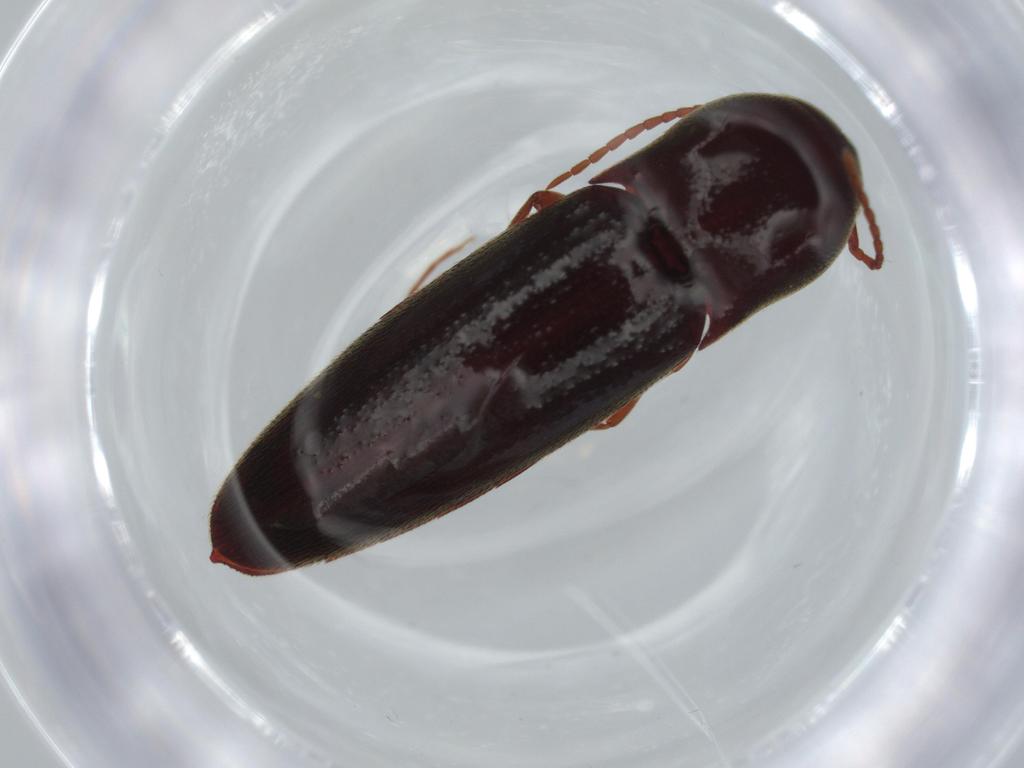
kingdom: Animalia
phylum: Arthropoda
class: Insecta
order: Coleoptera
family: Eucnemidae
